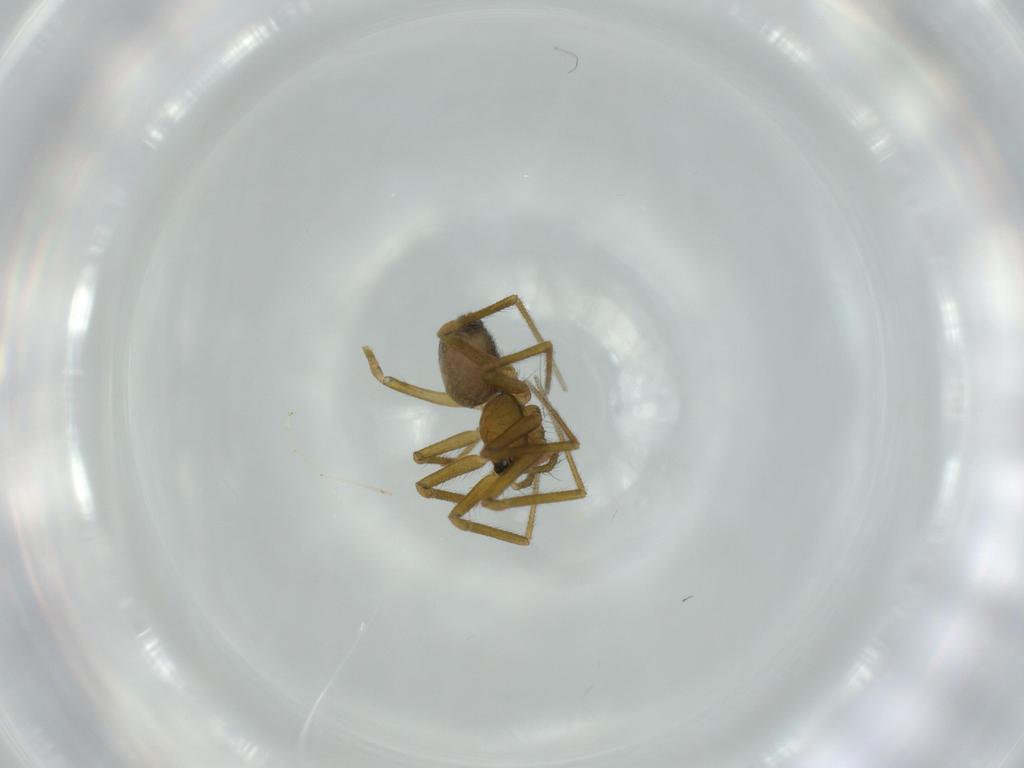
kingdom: Animalia
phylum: Arthropoda
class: Arachnida
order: Araneae
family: Linyphiidae
